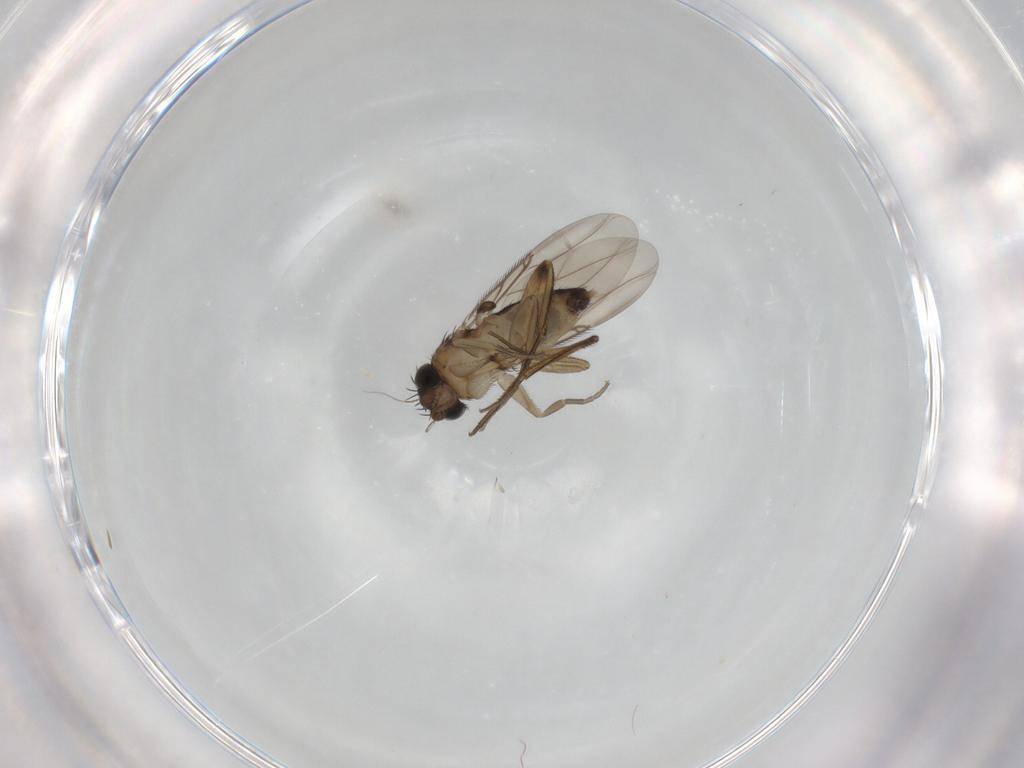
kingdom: Animalia
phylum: Arthropoda
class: Insecta
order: Diptera
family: Phoridae
